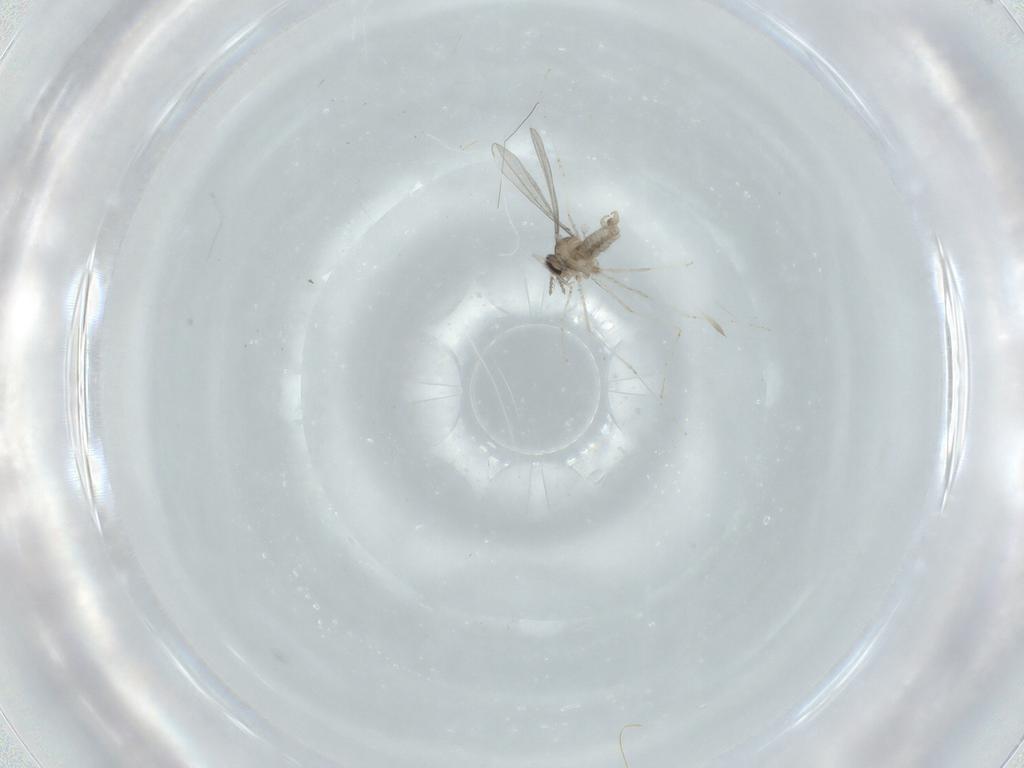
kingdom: Animalia
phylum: Arthropoda
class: Insecta
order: Diptera
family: Cecidomyiidae
